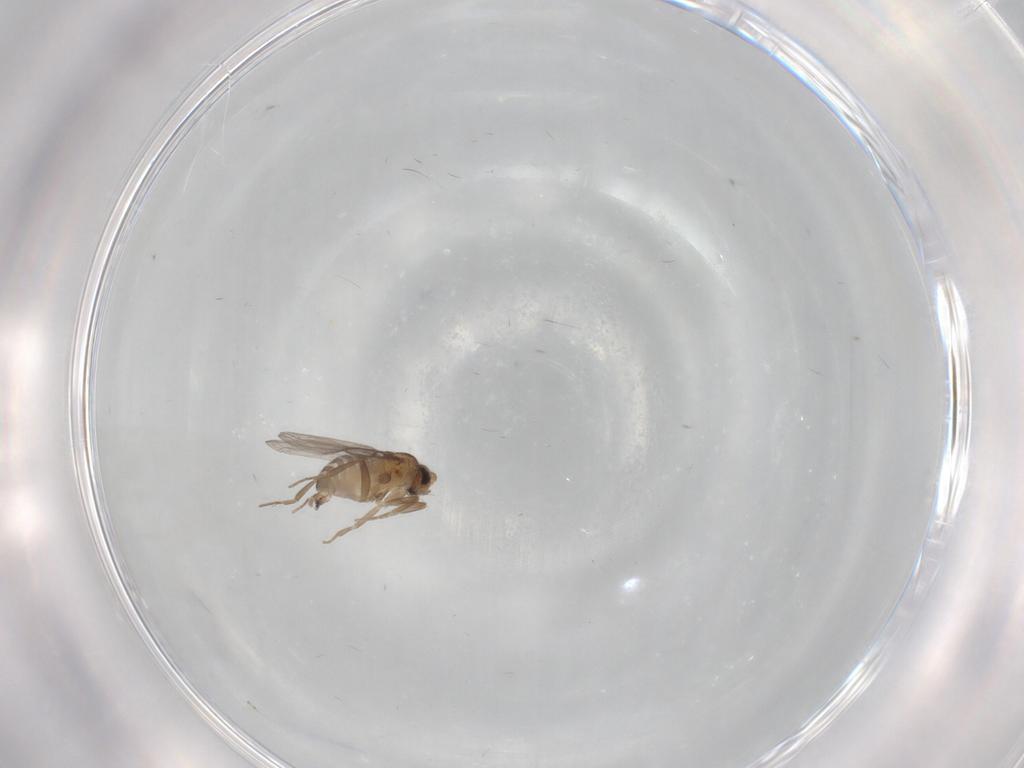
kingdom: Animalia
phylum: Arthropoda
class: Insecta
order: Diptera
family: Cecidomyiidae
